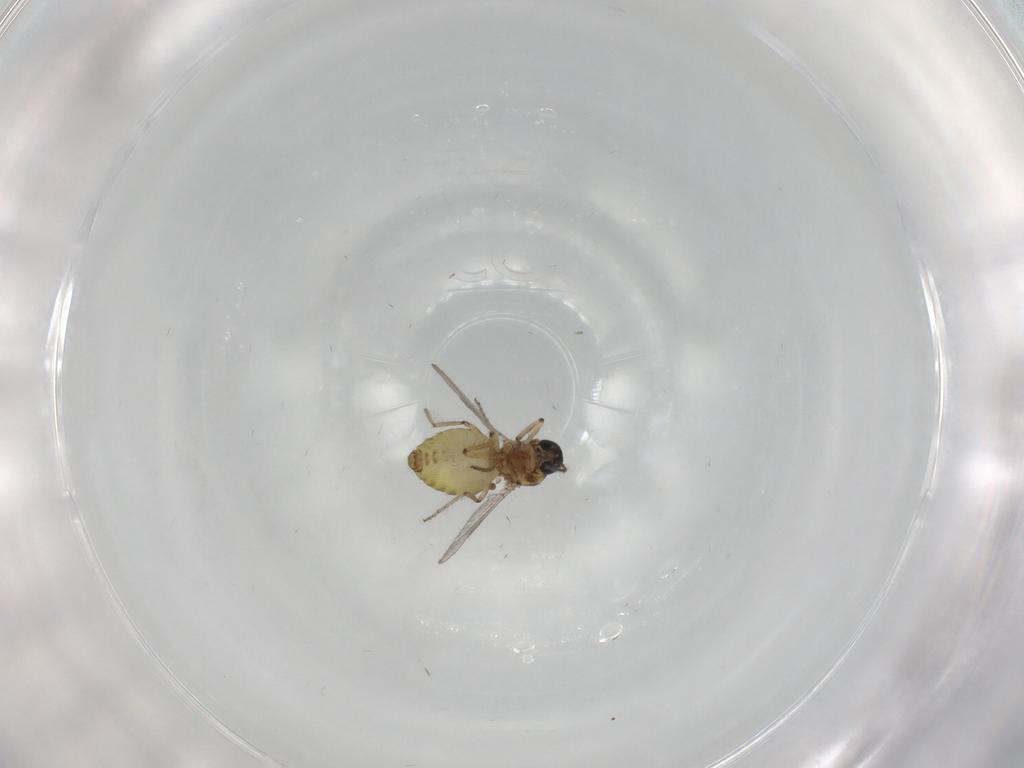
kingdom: Animalia
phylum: Arthropoda
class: Insecta
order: Diptera
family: Ceratopogonidae
